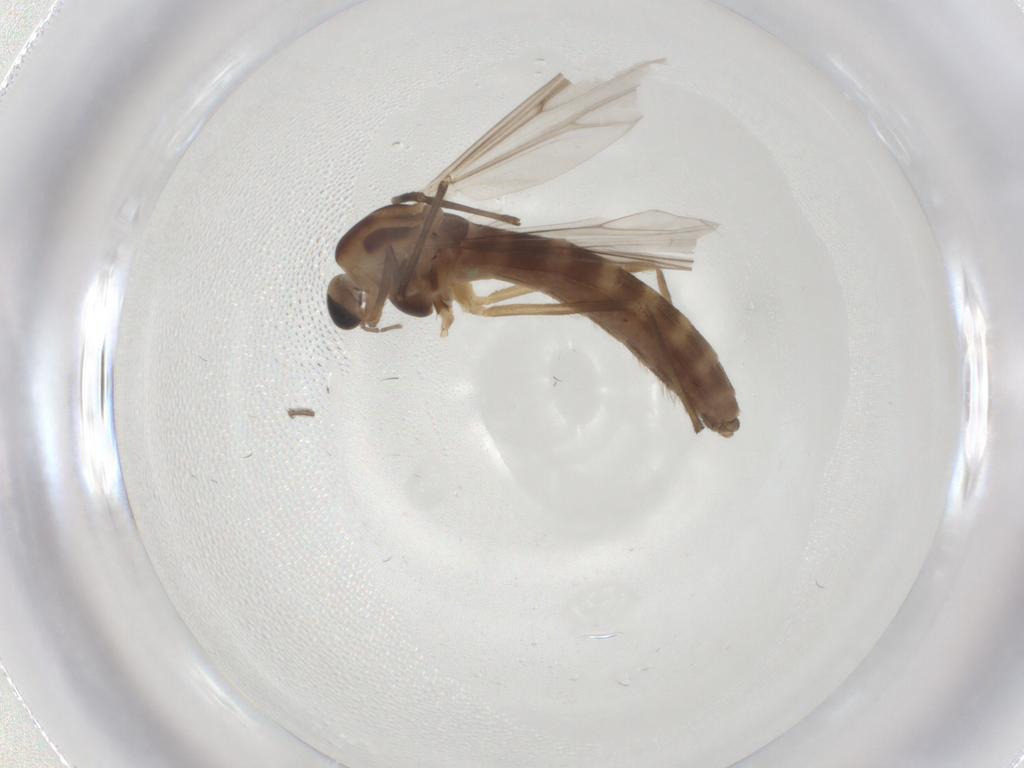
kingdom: Animalia
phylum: Arthropoda
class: Insecta
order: Diptera
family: Chironomidae
